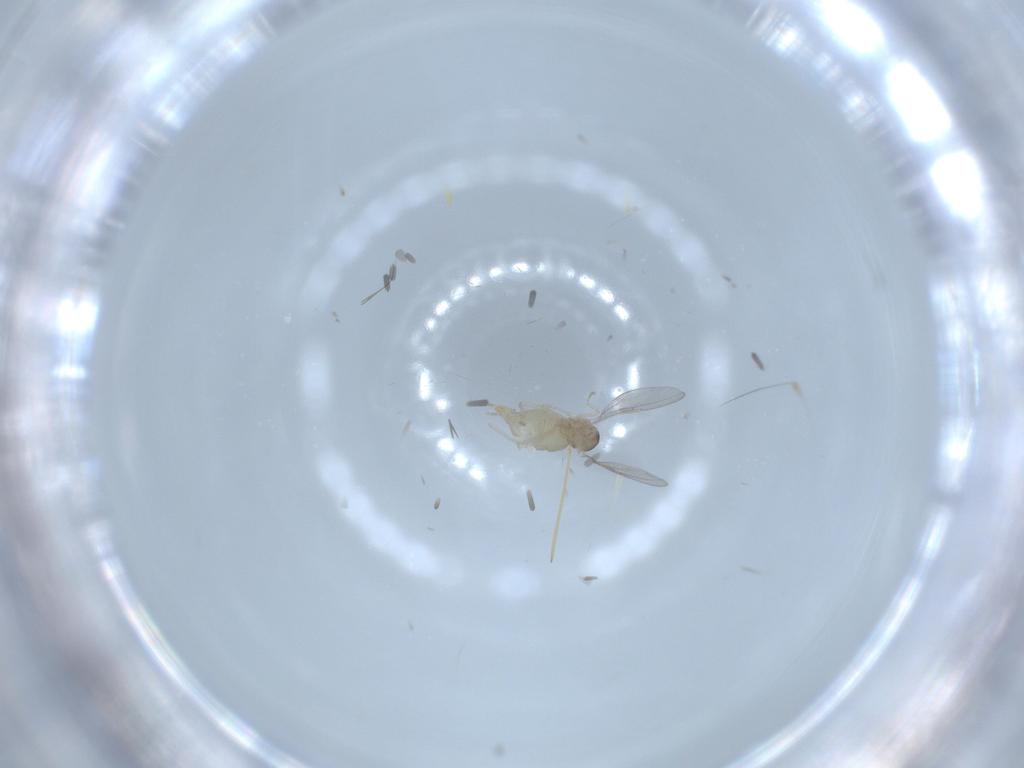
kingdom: Animalia
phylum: Arthropoda
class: Insecta
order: Diptera
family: Cecidomyiidae
